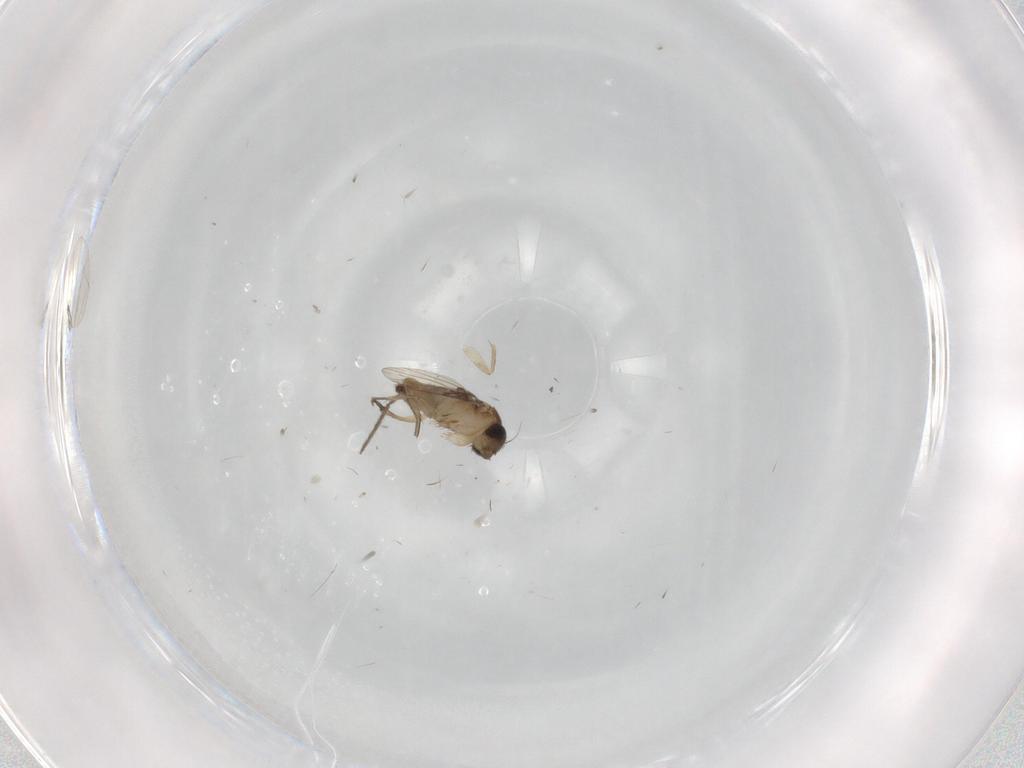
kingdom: Animalia
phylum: Arthropoda
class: Insecta
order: Diptera
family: Phoridae
